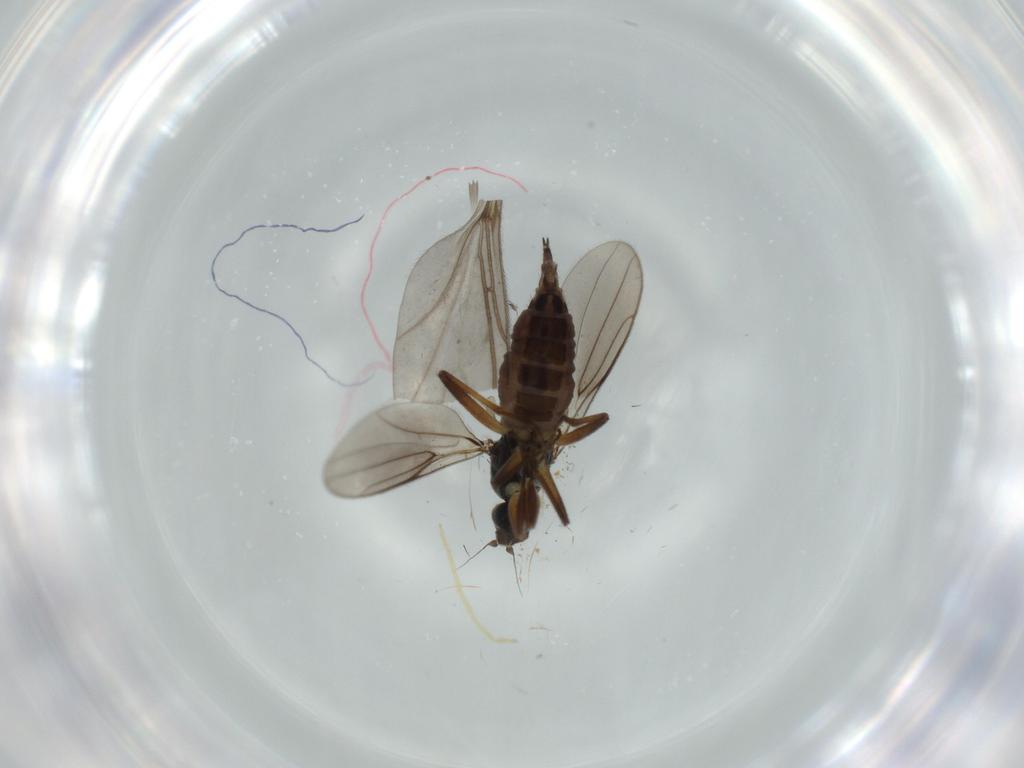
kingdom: Animalia
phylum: Arthropoda
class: Insecta
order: Diptera
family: Hybotidae
